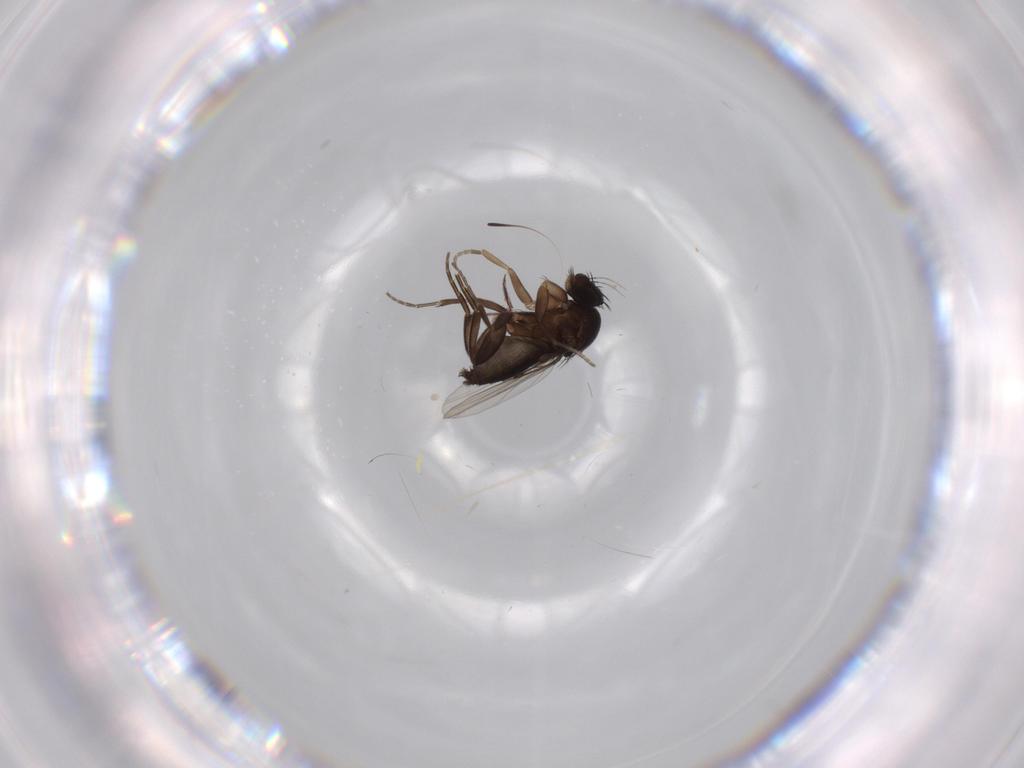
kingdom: Animalia
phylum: Arthropoda
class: Insecta
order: Diptera
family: Phoridae
